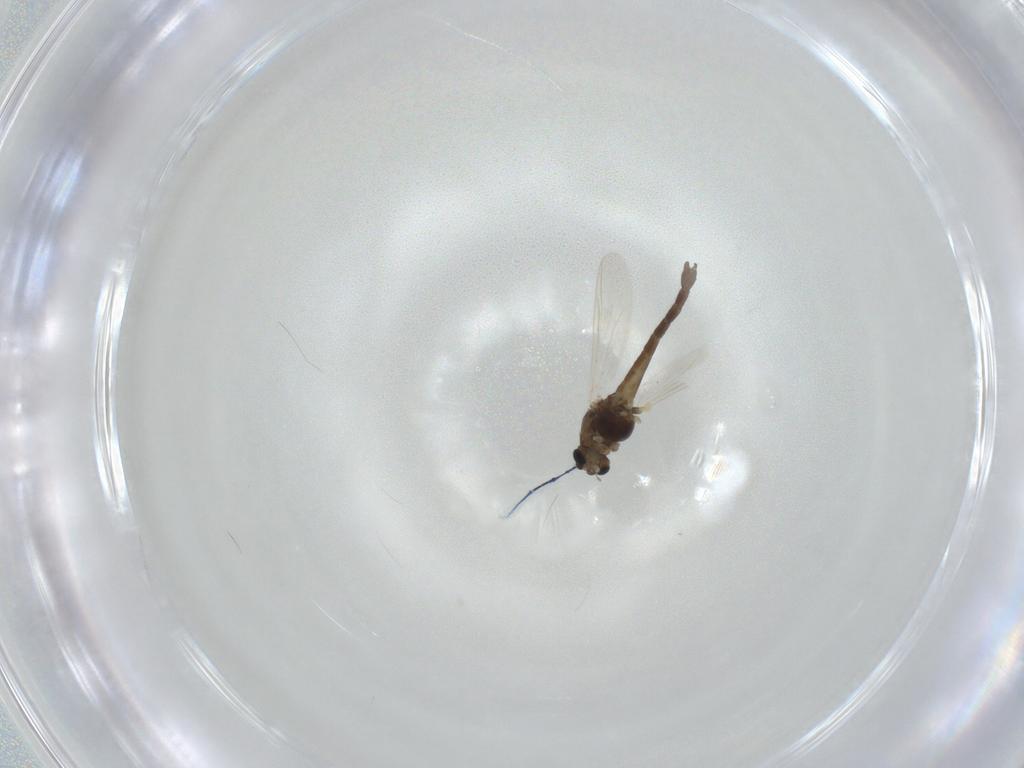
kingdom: Animalia
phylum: Arthropoda
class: Insecta
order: Diptera
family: Chironomidae
